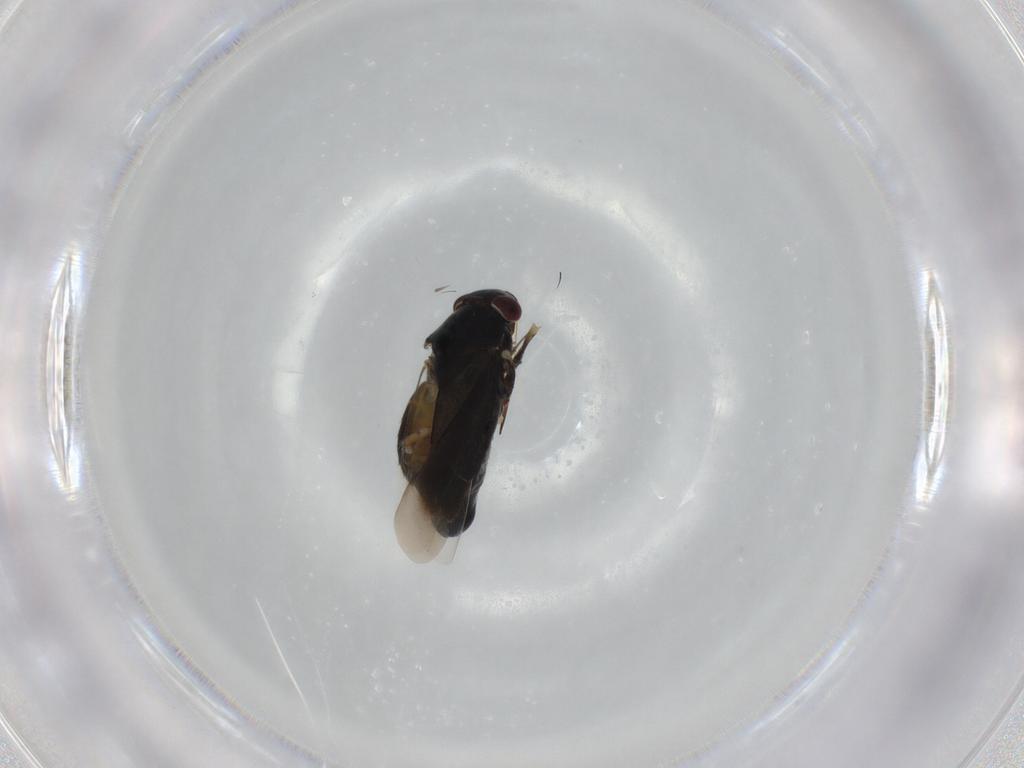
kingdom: Animalia
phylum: Arthropoda
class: Insecta
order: Hemiptera
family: Miridae
